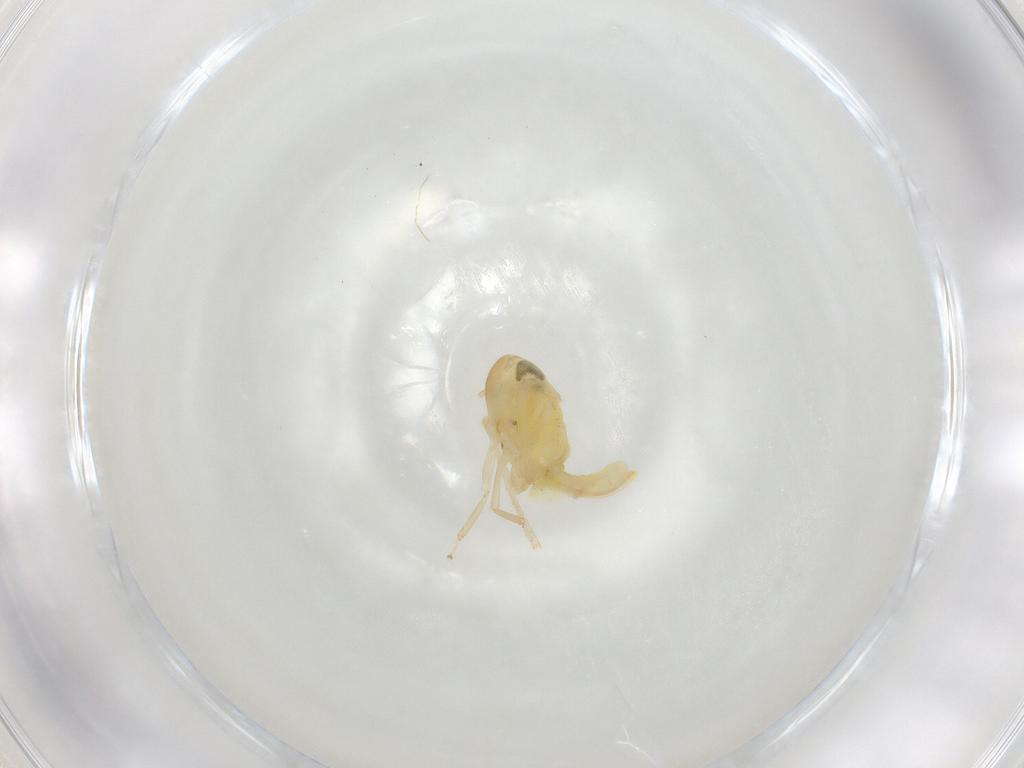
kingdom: Animalia
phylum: Arthropoda
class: Insecta
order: Hemiptera
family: Cicadellidae
